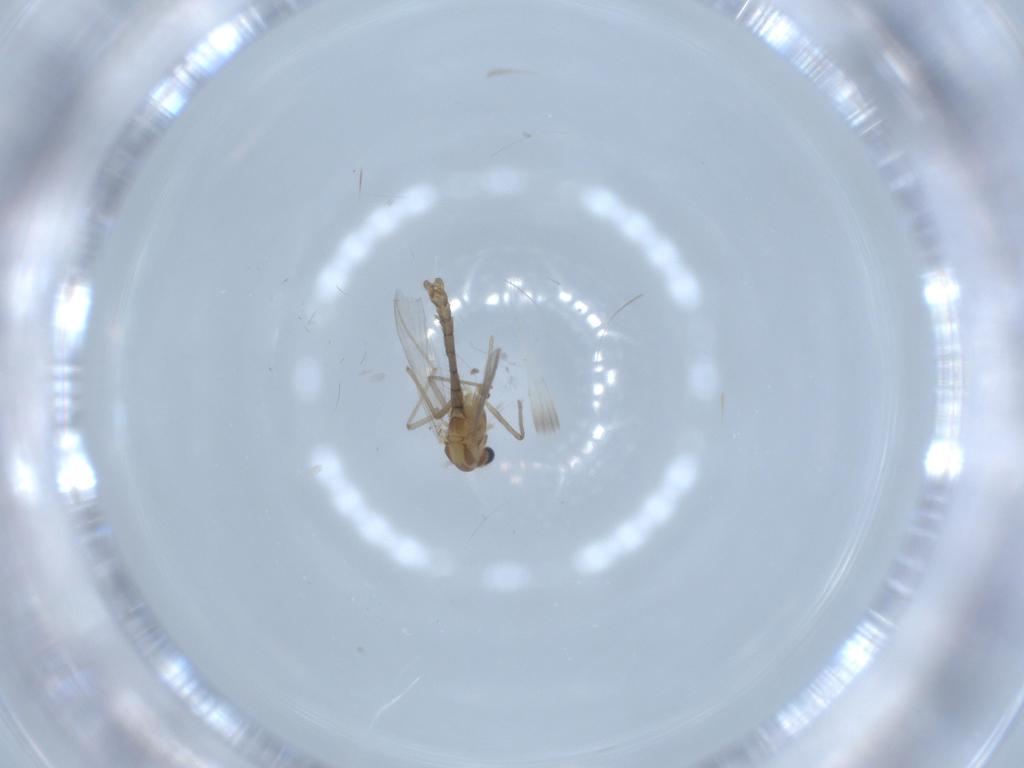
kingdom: Animalia
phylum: Arthropoda
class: Insecta
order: Diptera
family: Chironomidae
